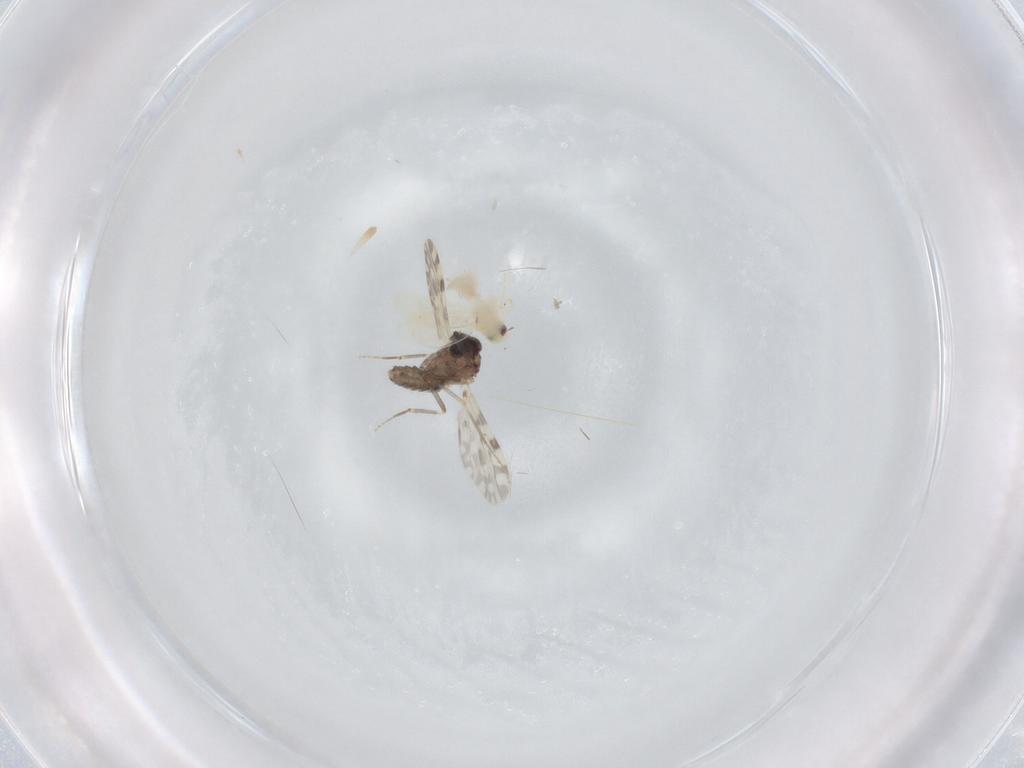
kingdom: Animalia
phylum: Arthropoda
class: Insecta
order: Diptera
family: Ceratopogonidae
